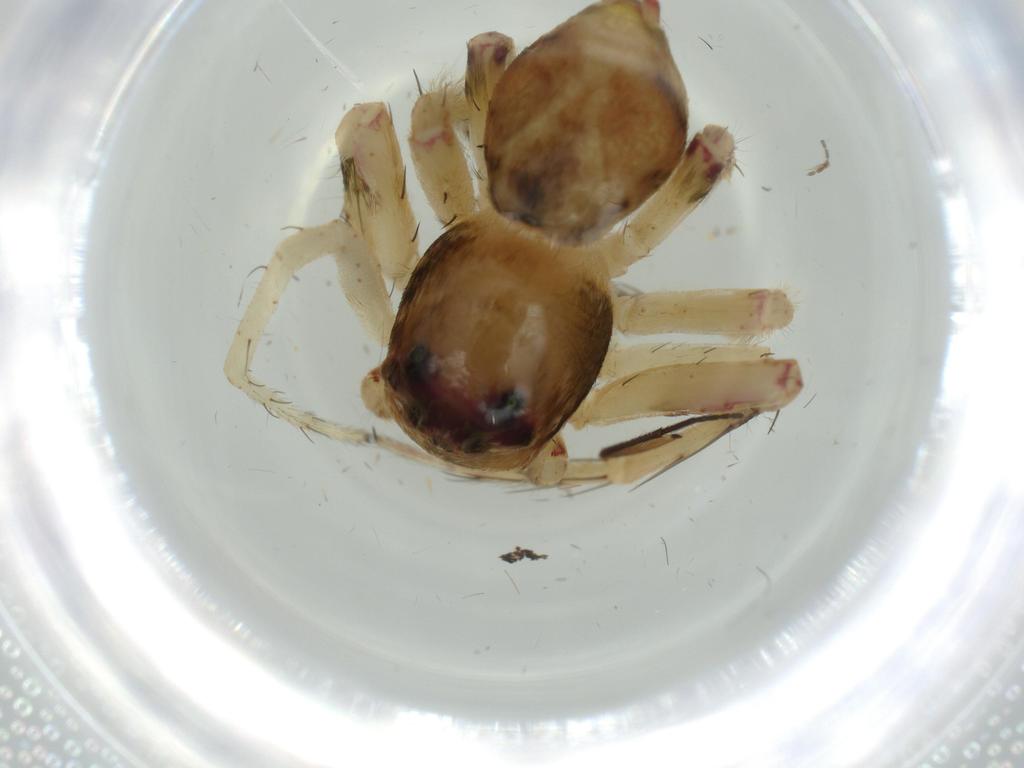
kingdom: Animalia
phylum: Arthropoda
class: Arachnida
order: Araneae
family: Oxyopidae
